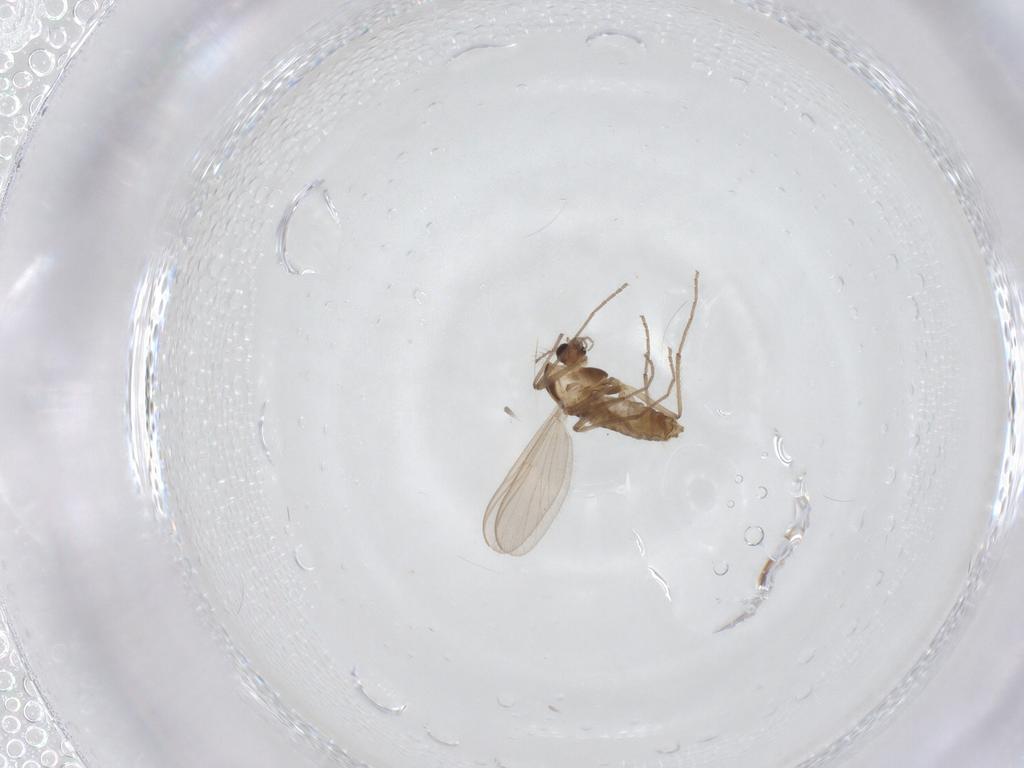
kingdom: Animalia
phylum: Arthropoda
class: Insecta
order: Diptera
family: Chironomidae
